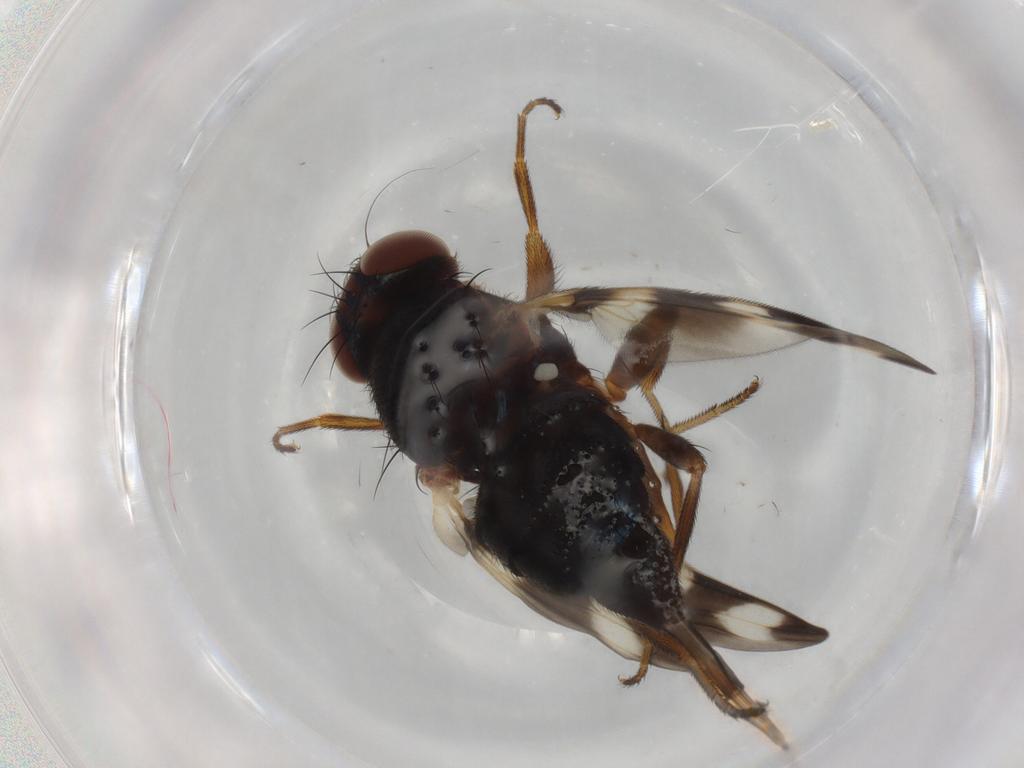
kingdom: Animalia
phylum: Arthropoda
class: Insecta
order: Diptera
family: Ulidiidae
